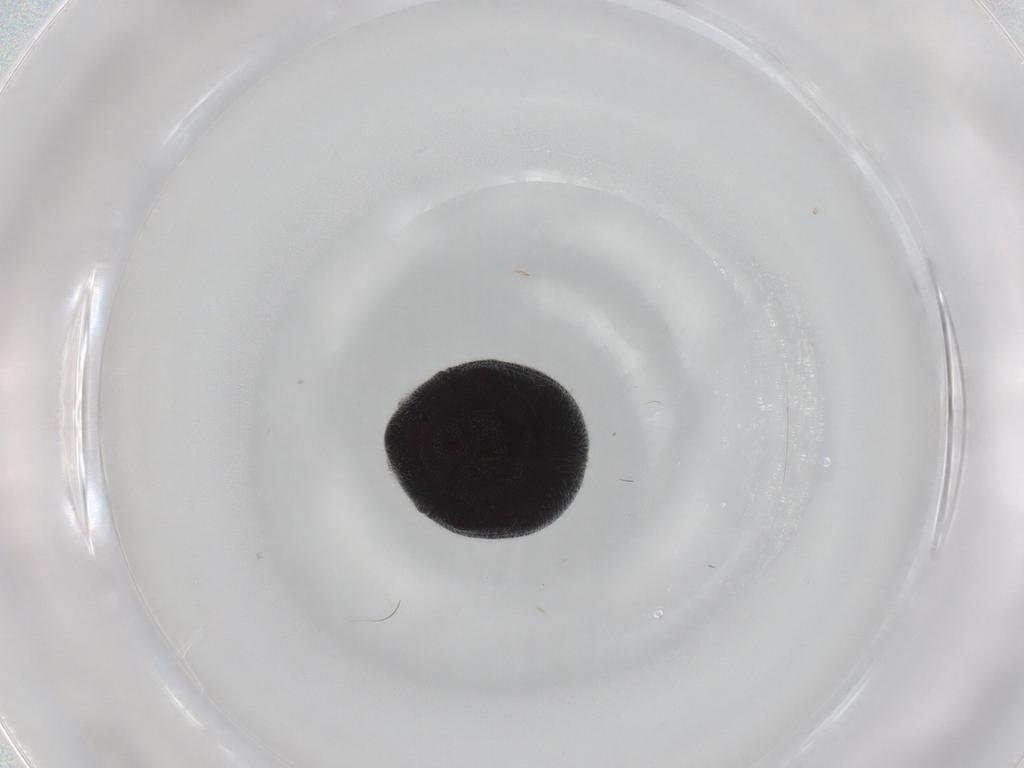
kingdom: Animalia
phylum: Arthropoda
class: Insecta
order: Coleoptera
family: Ptinidae
